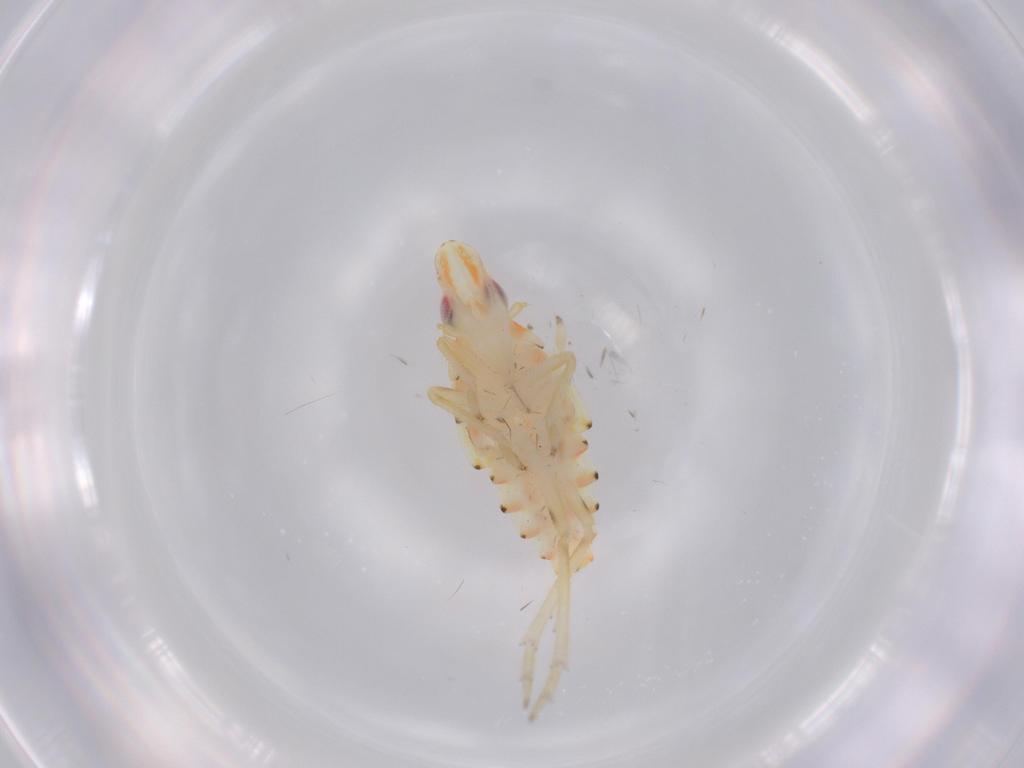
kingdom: Animalia
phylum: Arthropoda
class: Insecta
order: Hemiptera
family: Tropiduchidae
